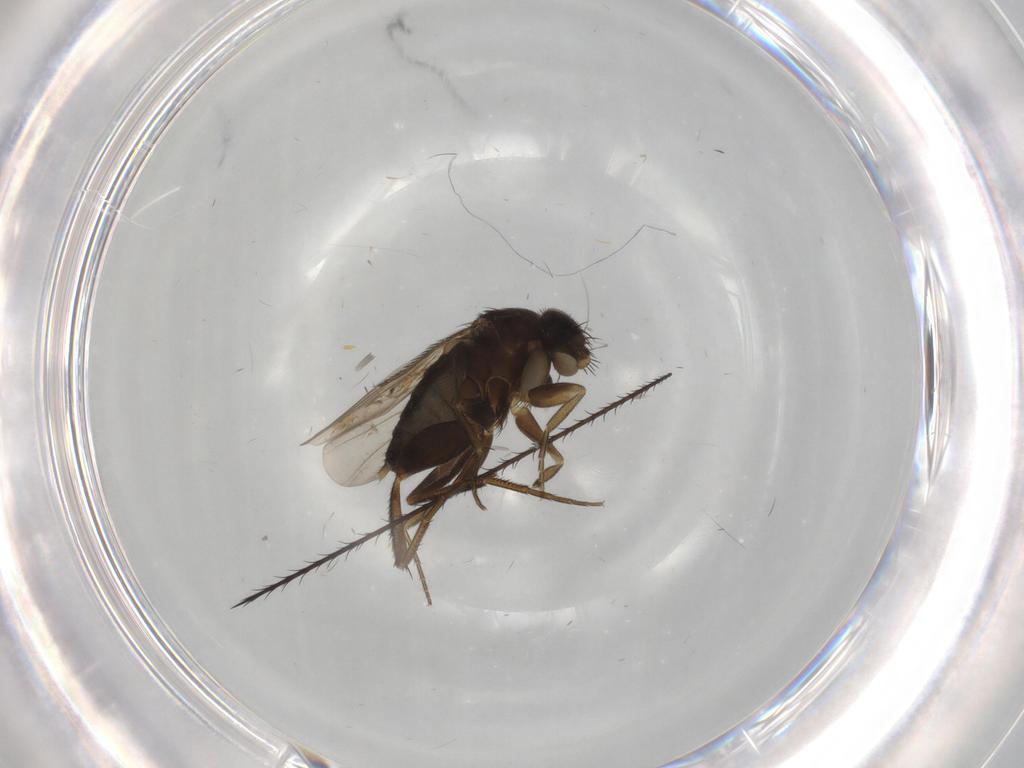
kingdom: Animalia
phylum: Arthropoda
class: Insecta
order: Diptera
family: Phoridae
